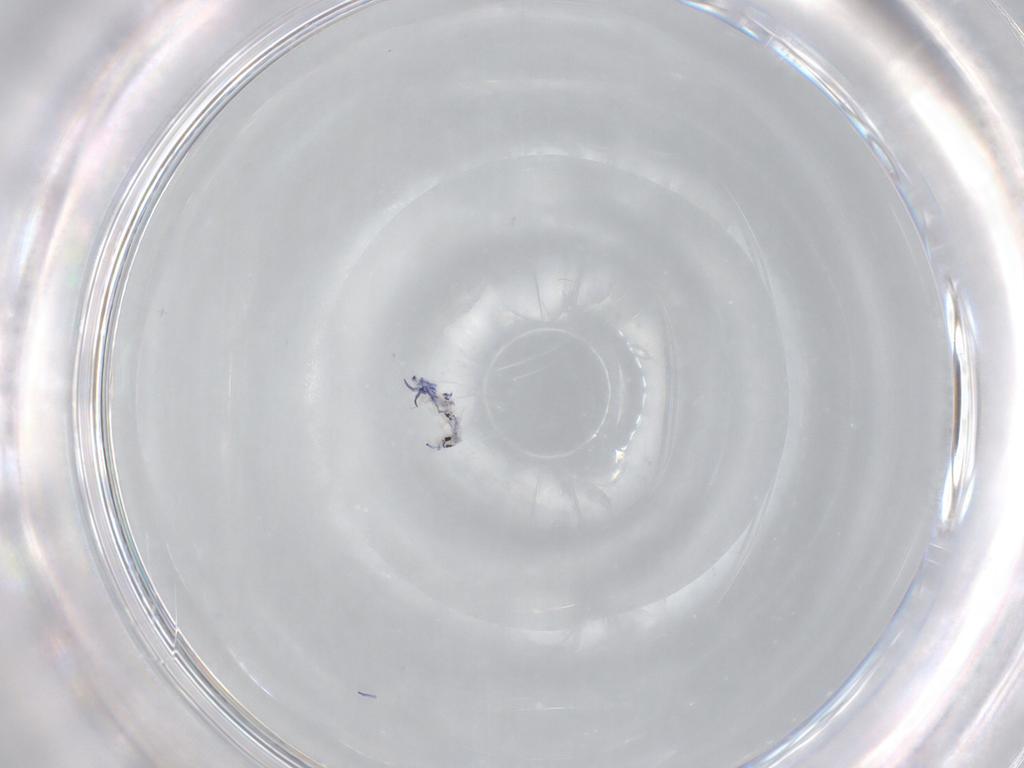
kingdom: Animalia
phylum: Arthropoda
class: Collembola
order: Entomobryomorpha
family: Entomobryidae
